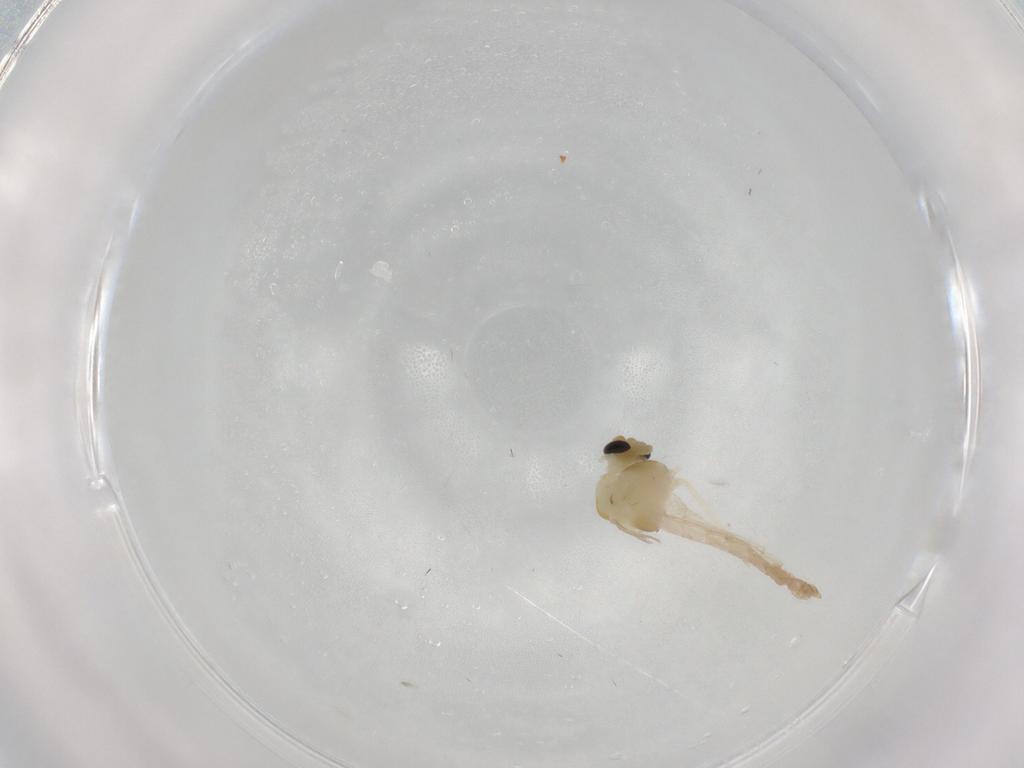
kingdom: Animalia
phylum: Arthropoda
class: Insecta
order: Diptera
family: Chironomidae
